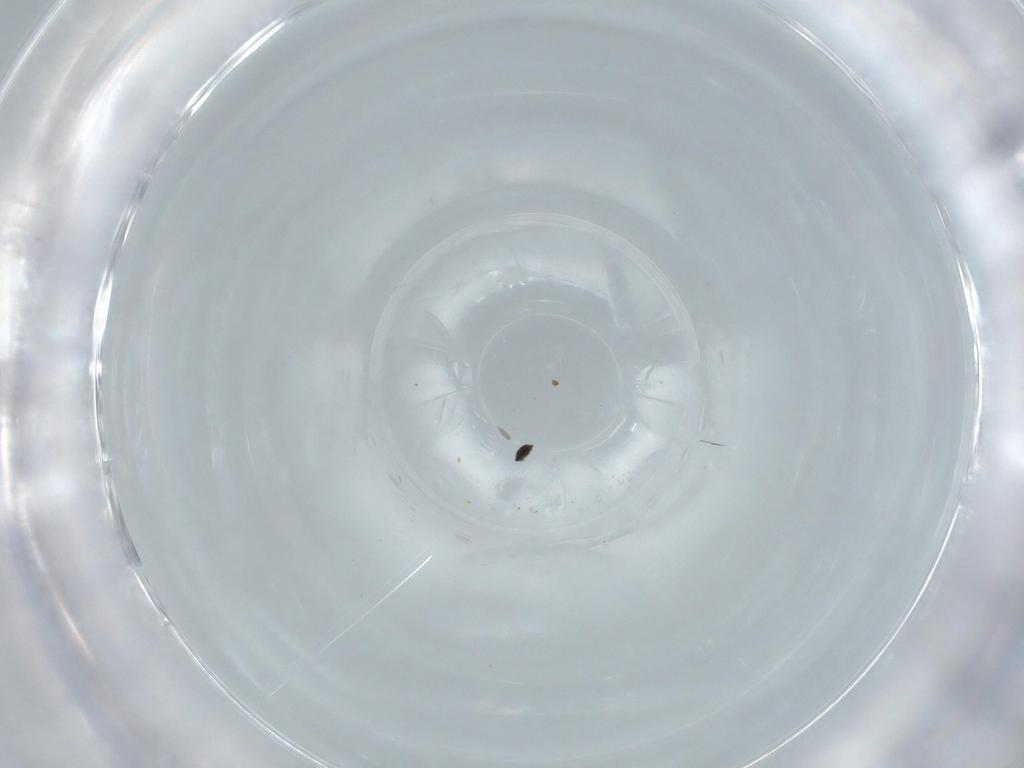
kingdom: Animalia
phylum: Arthropoda
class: Insecta
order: Diptera
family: Cecidomyiidae
